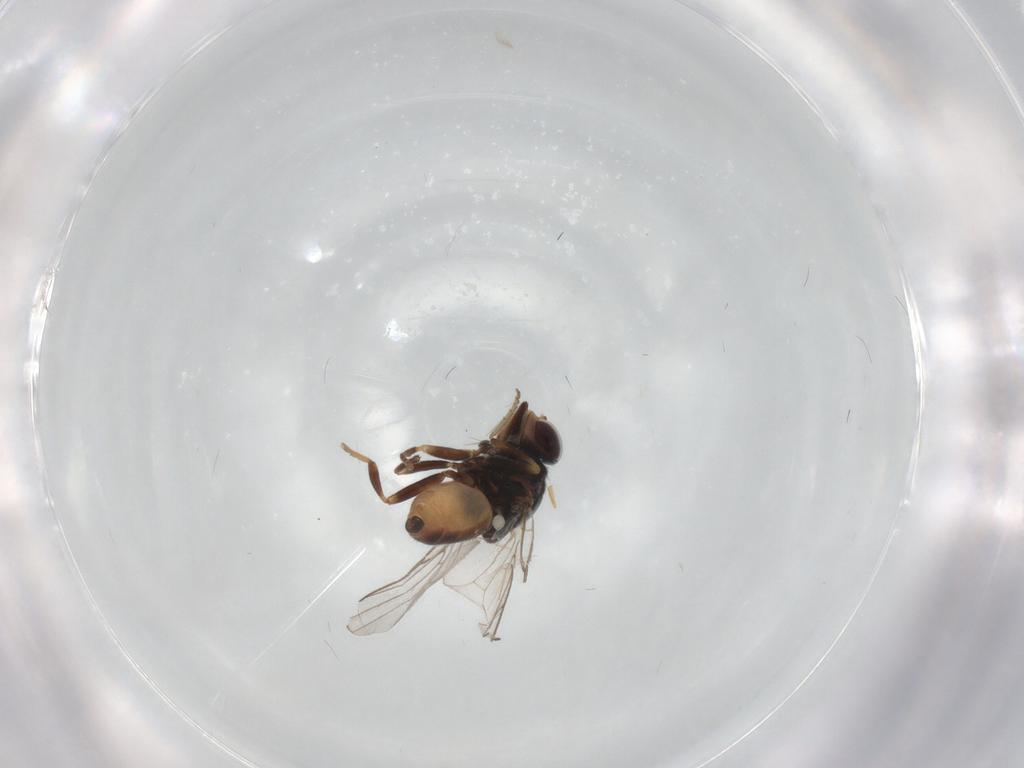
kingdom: Animalia
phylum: Arthropoda
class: Insecta
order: Diptera
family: Chloropidae
